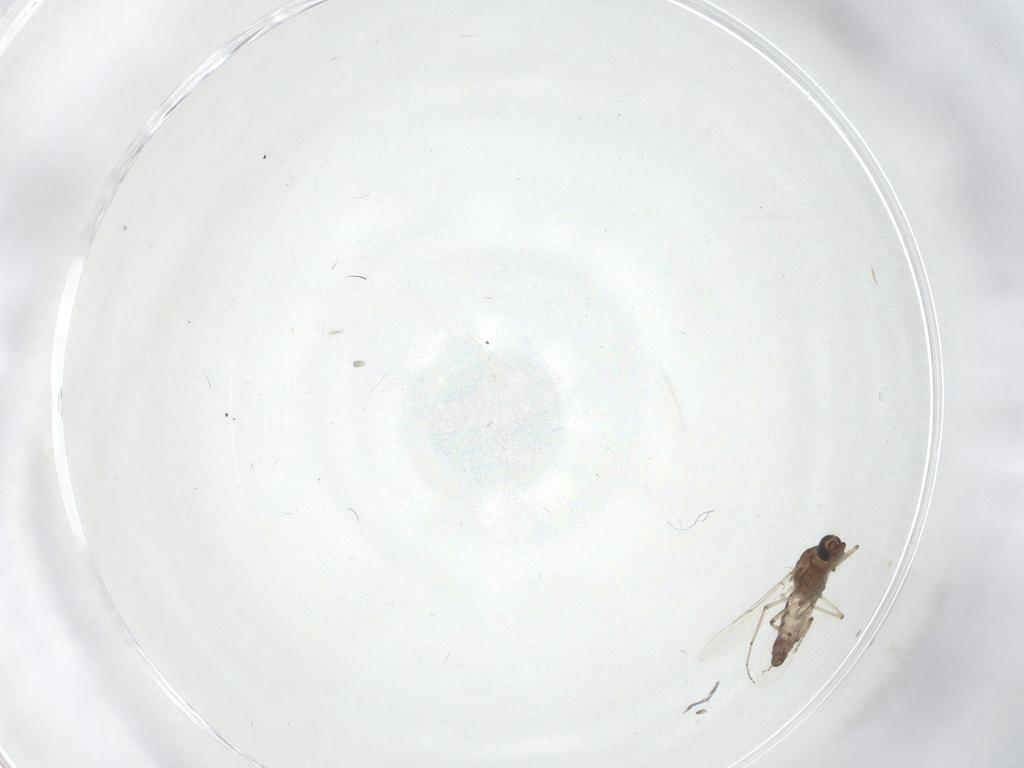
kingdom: Animalia
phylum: Arthropoda
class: Insecta
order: Diptera
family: Ceratopogonidae
